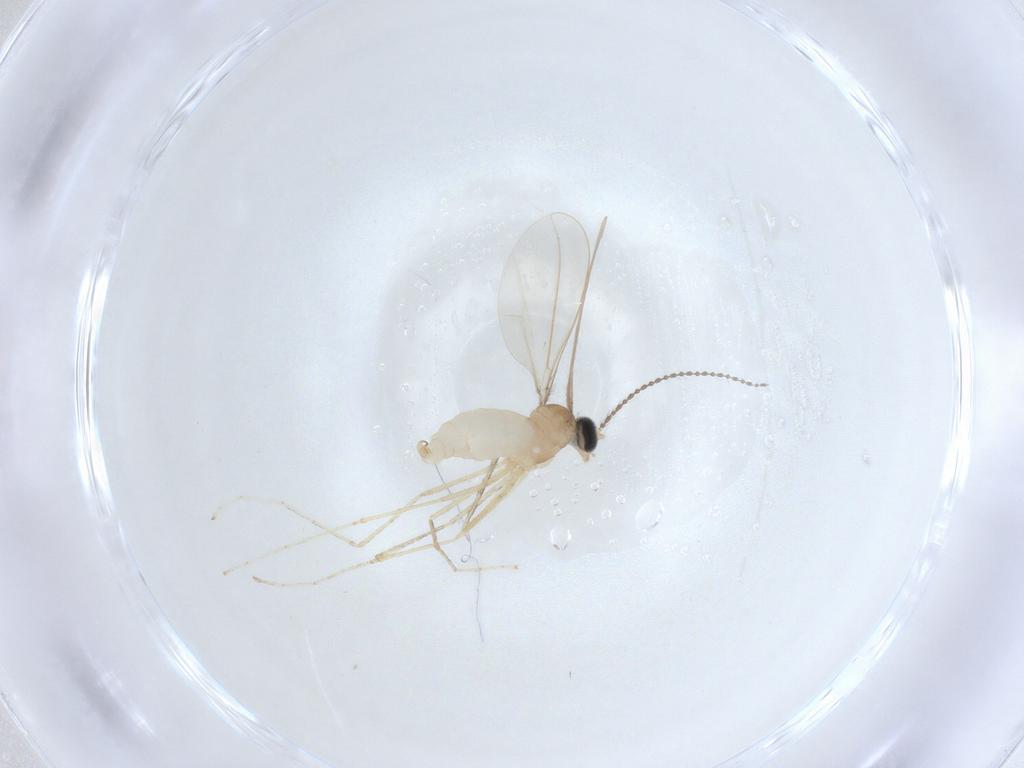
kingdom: Animalia
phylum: Arthropoda
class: Insecta
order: Diptera
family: Cecidomyiidae
